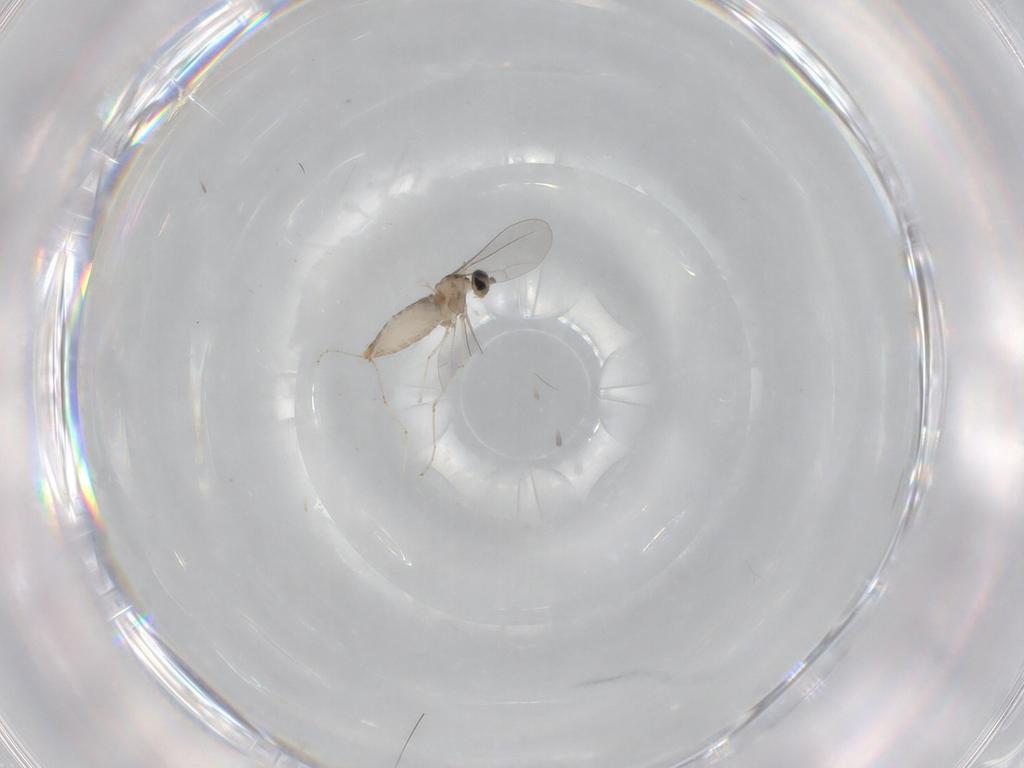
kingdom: Animalia
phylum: Arthropoda
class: Insecta
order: Diptera
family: Cecidomyiidae
